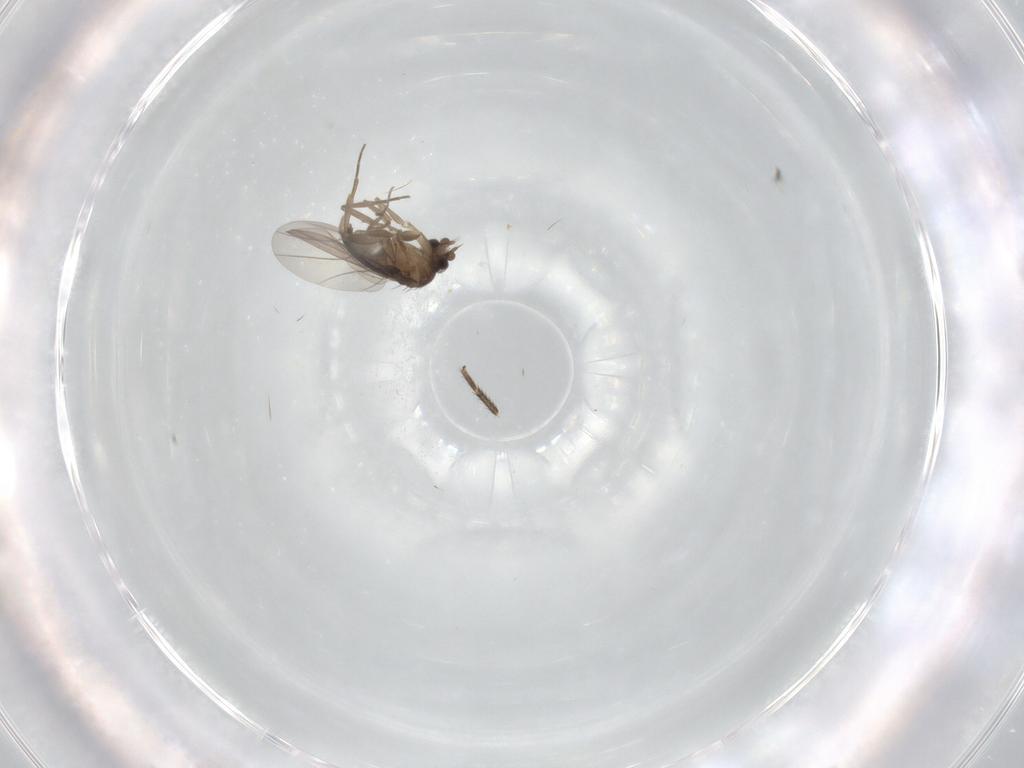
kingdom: Animalia
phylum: Arthropoda
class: Insecta
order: Diptera
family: Phoridae
